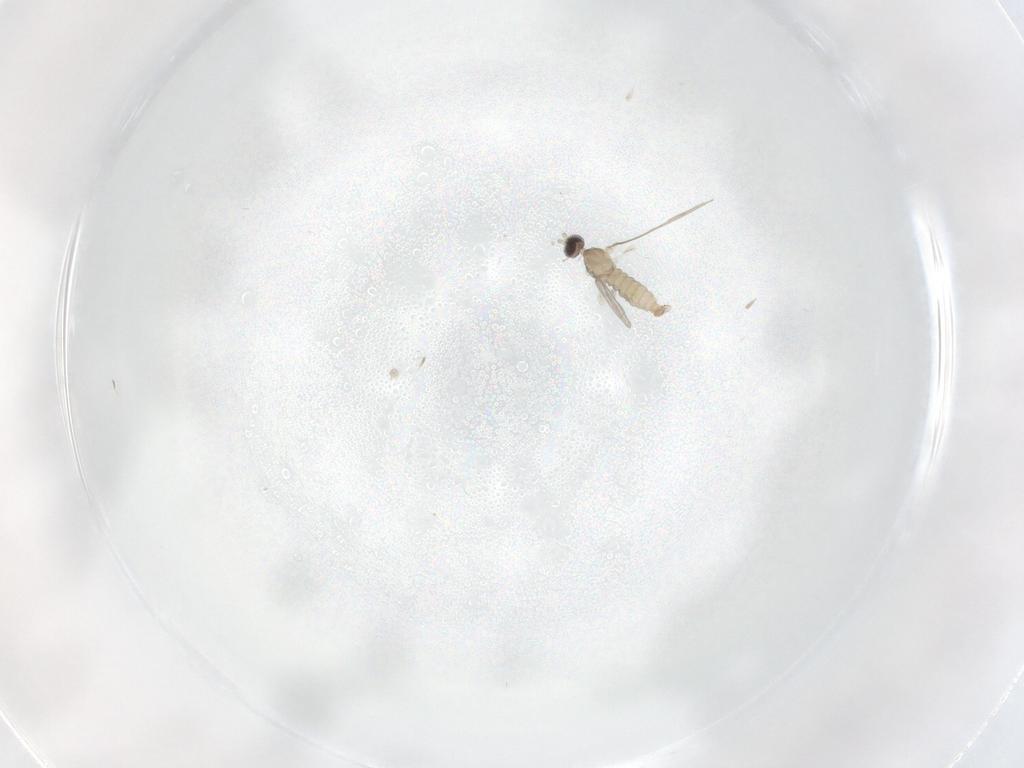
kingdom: Animalia
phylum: Arthropoda
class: Insecta
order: Diptera
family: Cecidomyiidae
